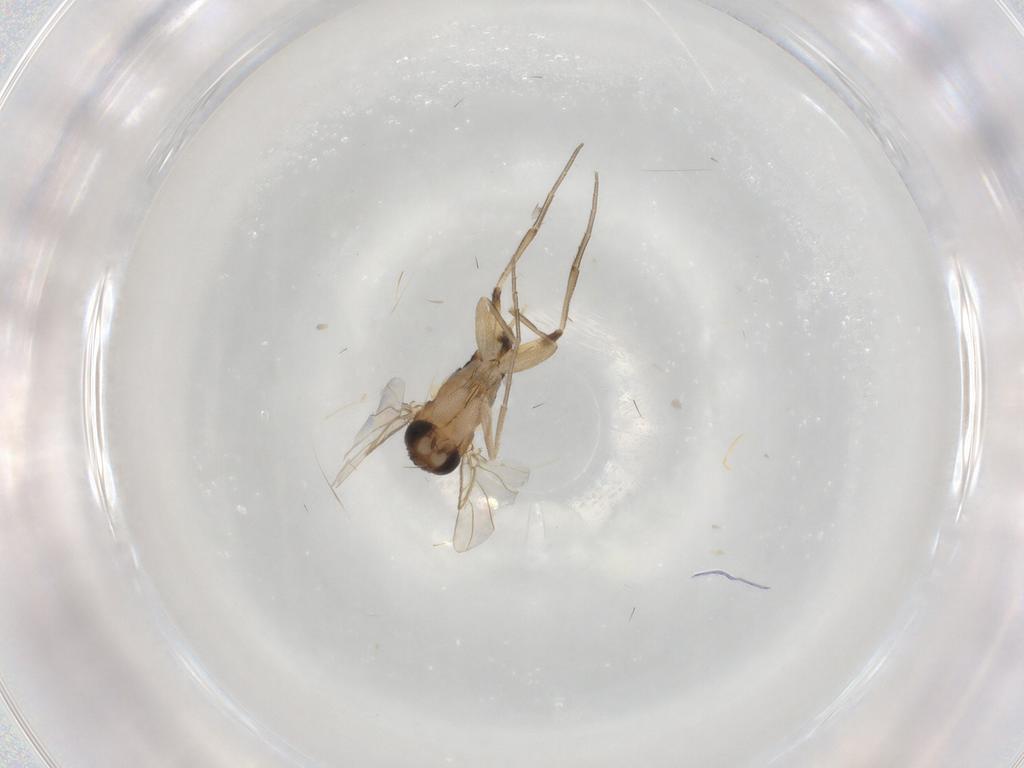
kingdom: Animalia
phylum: Arthropoda
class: Insecta
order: Diptera
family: Phoridae
